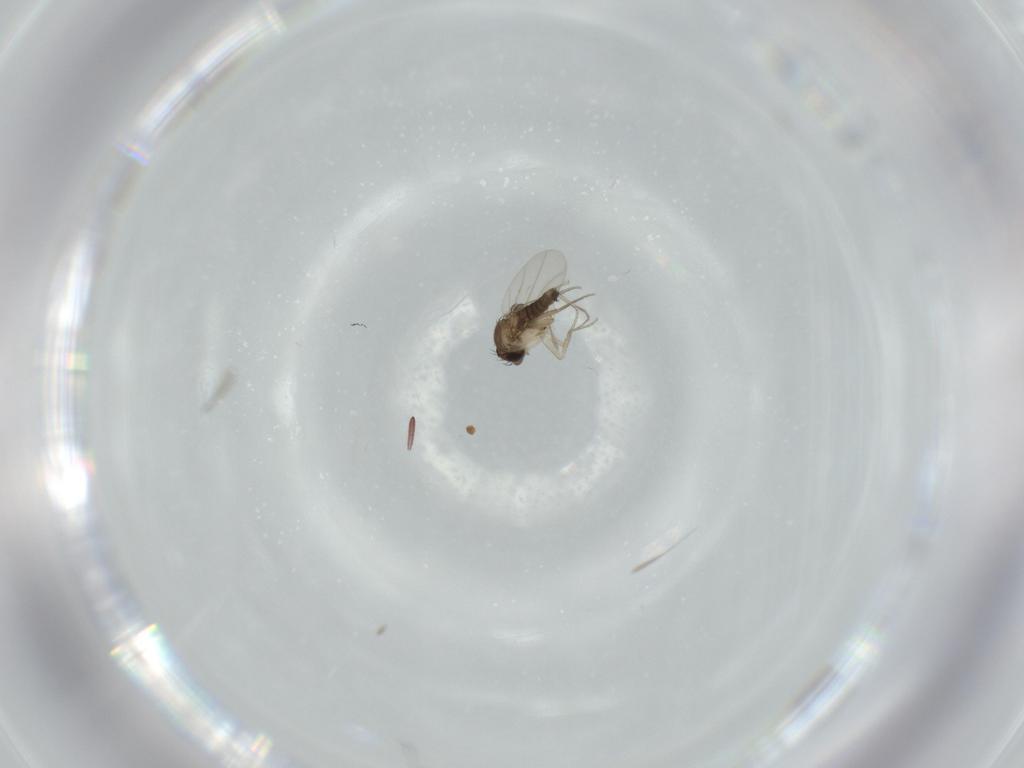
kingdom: Animalia
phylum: Arthropoda
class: Insecta
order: Diptera
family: Phoridae
